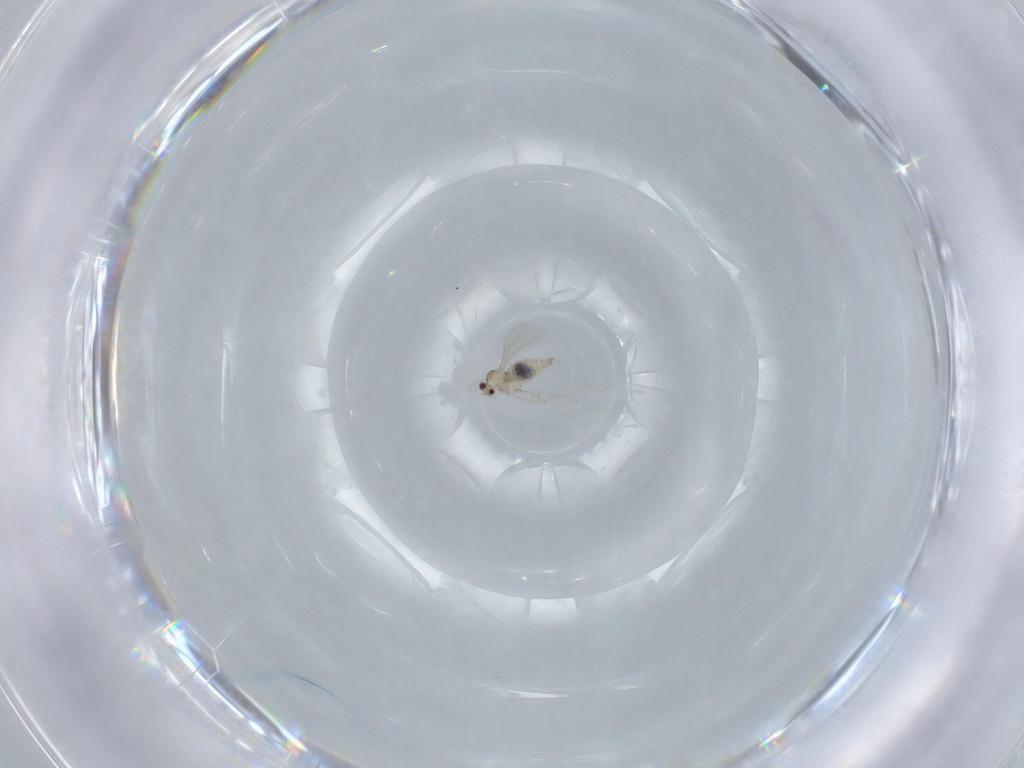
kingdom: Animalia
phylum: Arthropoda
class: Insecta
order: Diptera
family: Cecidomyiidae
